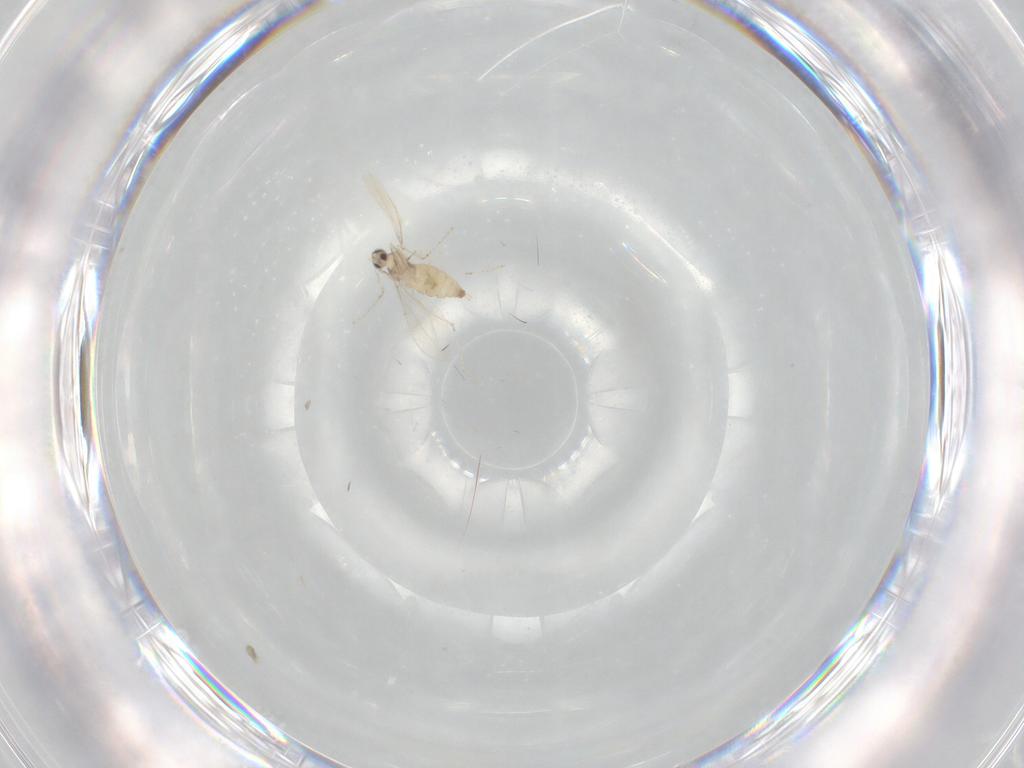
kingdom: Animalia
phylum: Arthropoda
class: Insecta
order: Diptera
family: Cecidomyiidae
